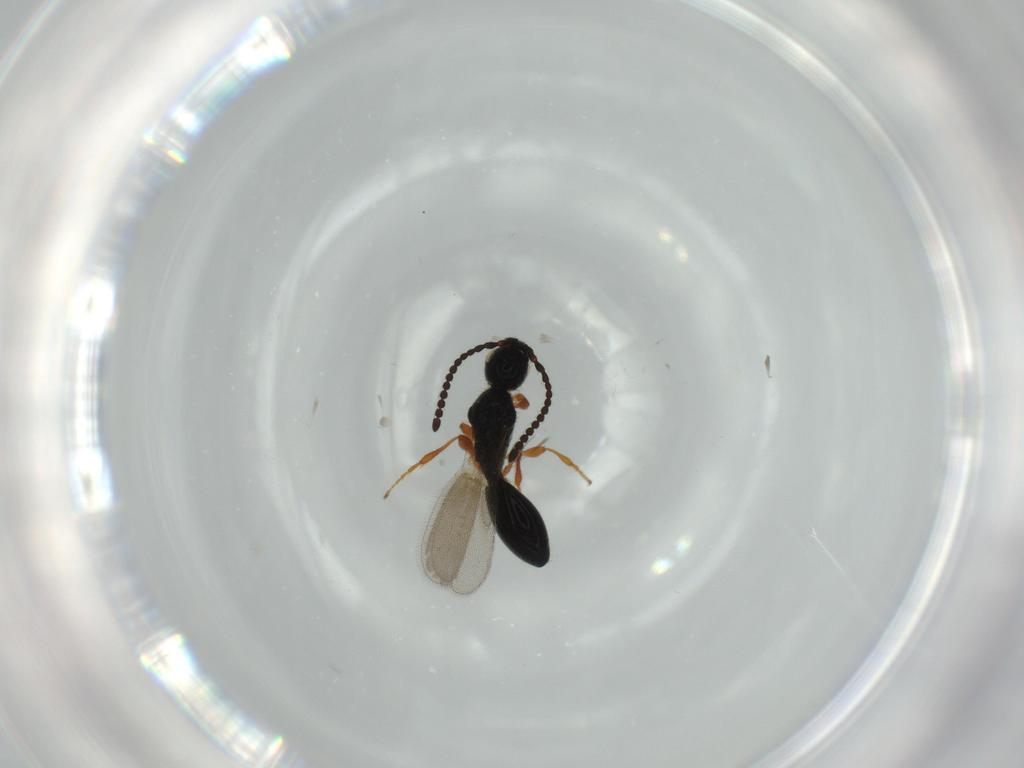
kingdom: Animalia
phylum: Arthropoda
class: Insecta
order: Hymenoptera
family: Diapriidae
